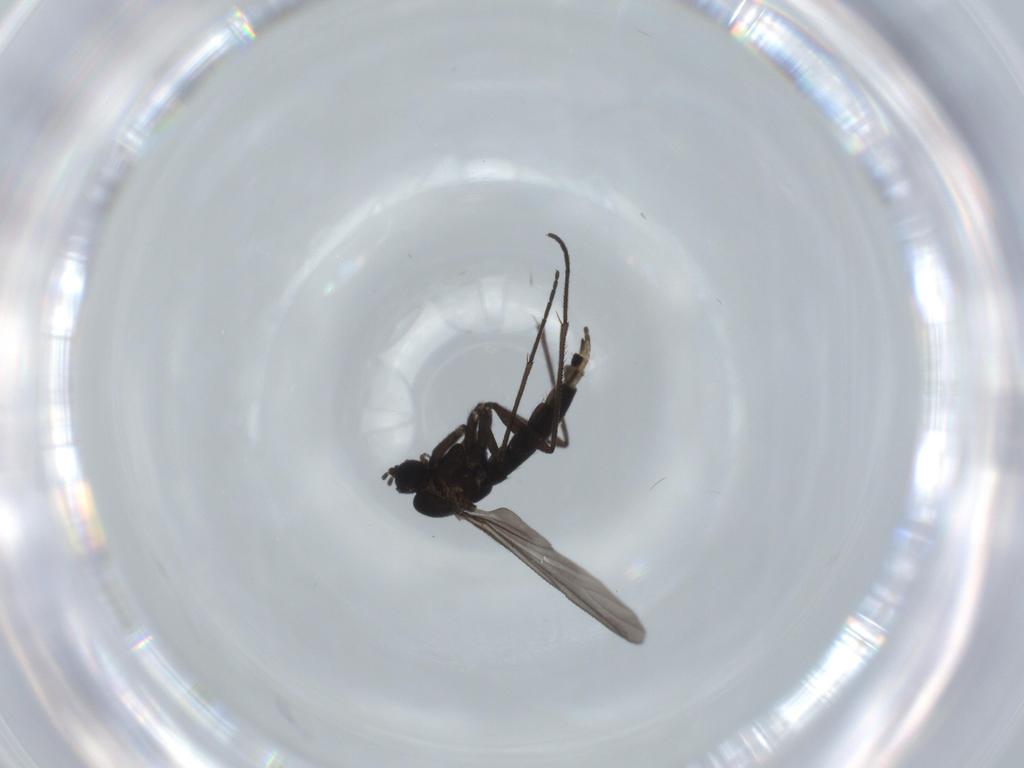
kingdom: Animalia
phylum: Arthropoda
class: Insecta
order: Diptera
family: Sciaridae
